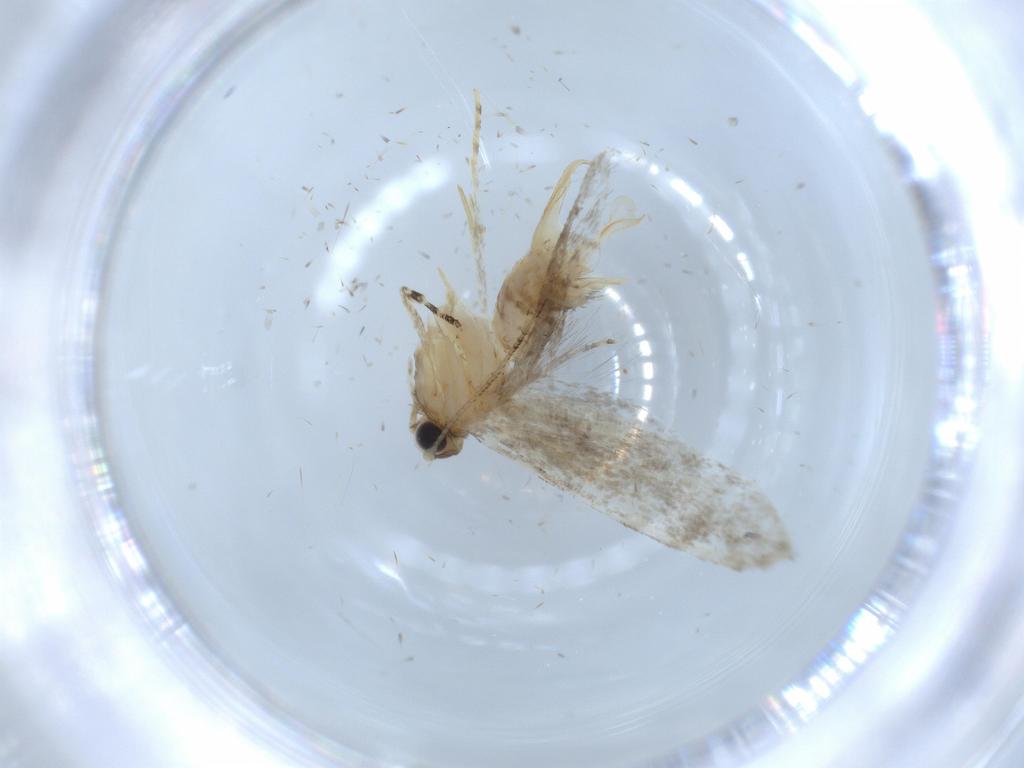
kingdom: Animalia
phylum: Arthropoda
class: Insecta
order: Lepidoptera
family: Tineidae
